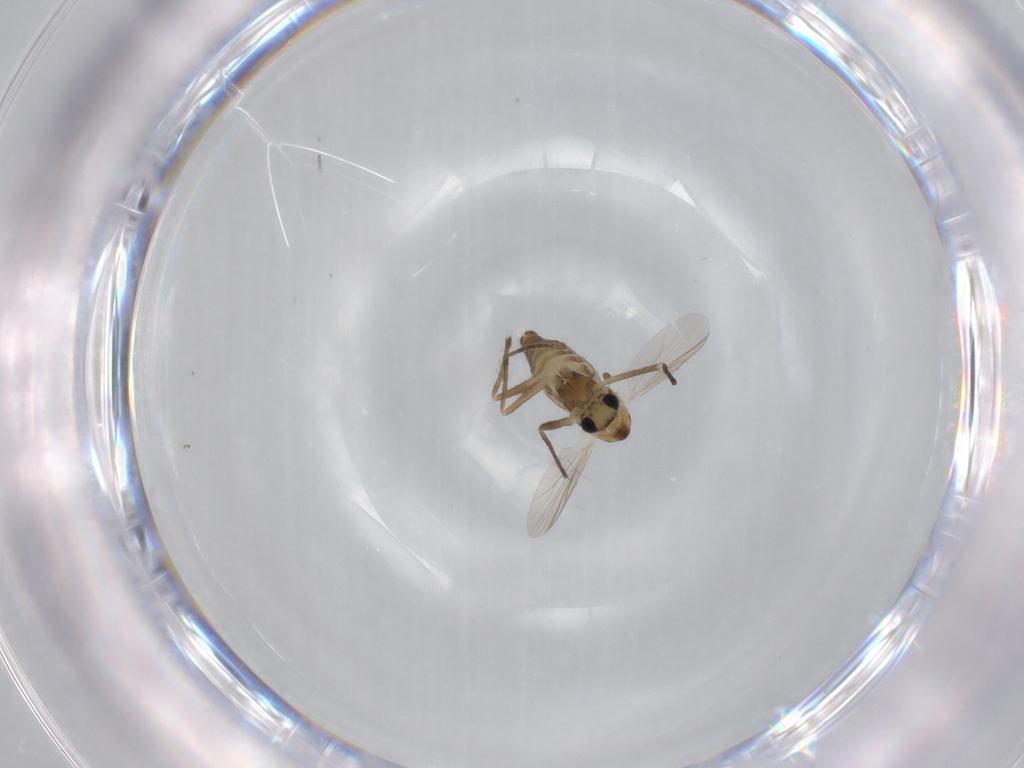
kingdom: Animalia
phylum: Arthropoda
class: Insecta
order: Diptera
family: Chironomidae
